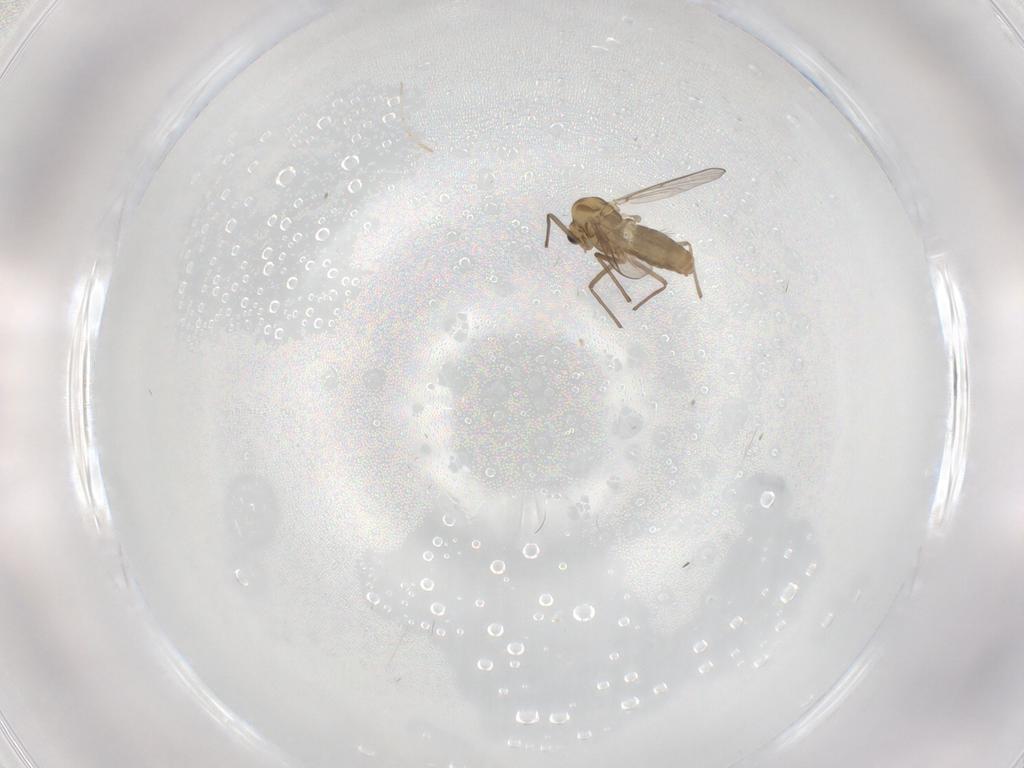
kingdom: Animalia
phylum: Arthropoda
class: Insecta
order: Diptera
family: Chironomidae
